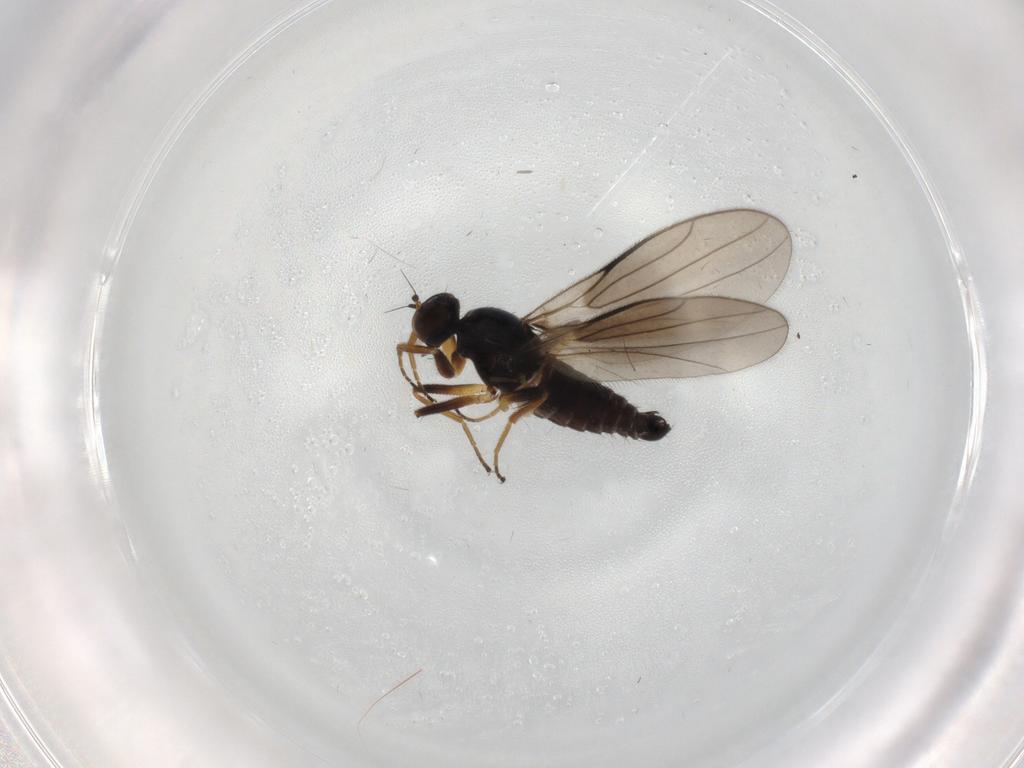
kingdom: Animalia
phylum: Arthropoda
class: Insecta
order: Diptera
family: Hybotidae
